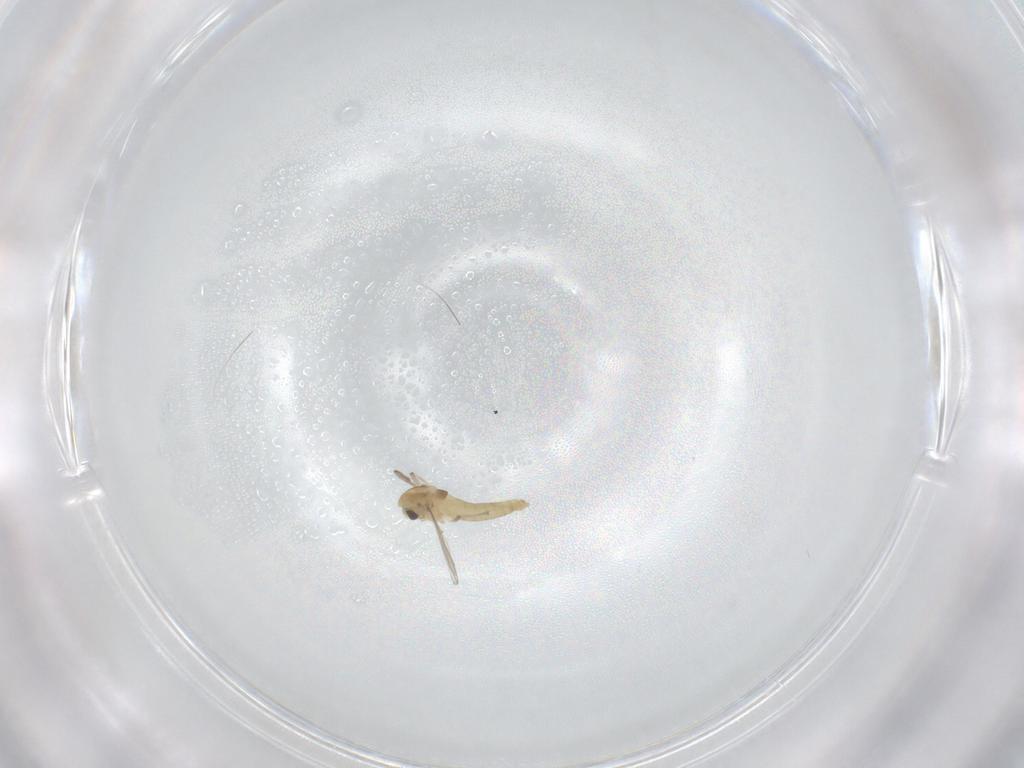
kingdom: Animalia
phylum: Arthropoda
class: Insecta
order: Diptera
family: Chironomidae
